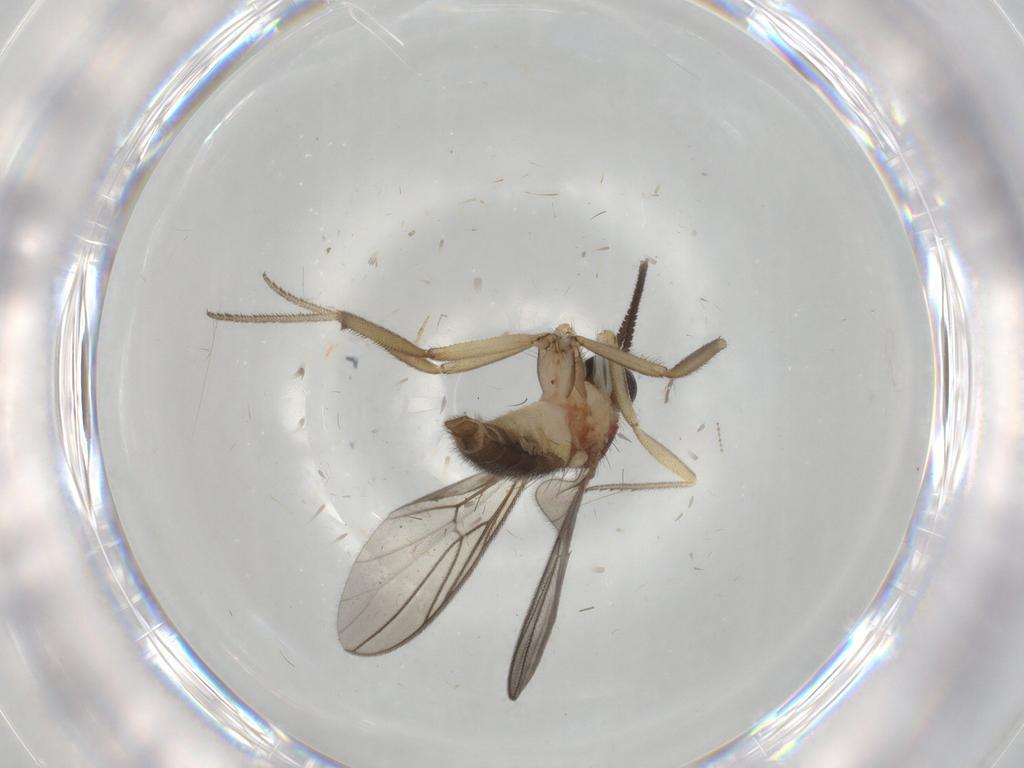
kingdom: Animalia
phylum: Arthropoda
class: Insecta
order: Diptera
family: Cecidomyiidae
